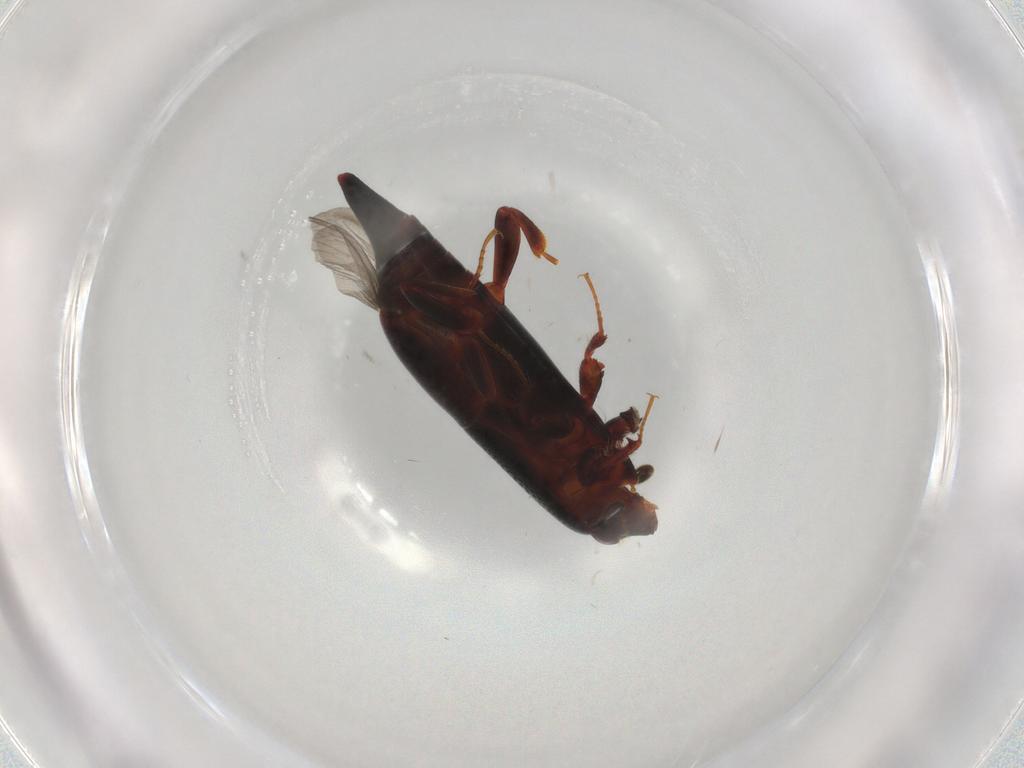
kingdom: Animalia
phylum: Arthropoda
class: Insecta
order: Coleoptera
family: Histeridae
